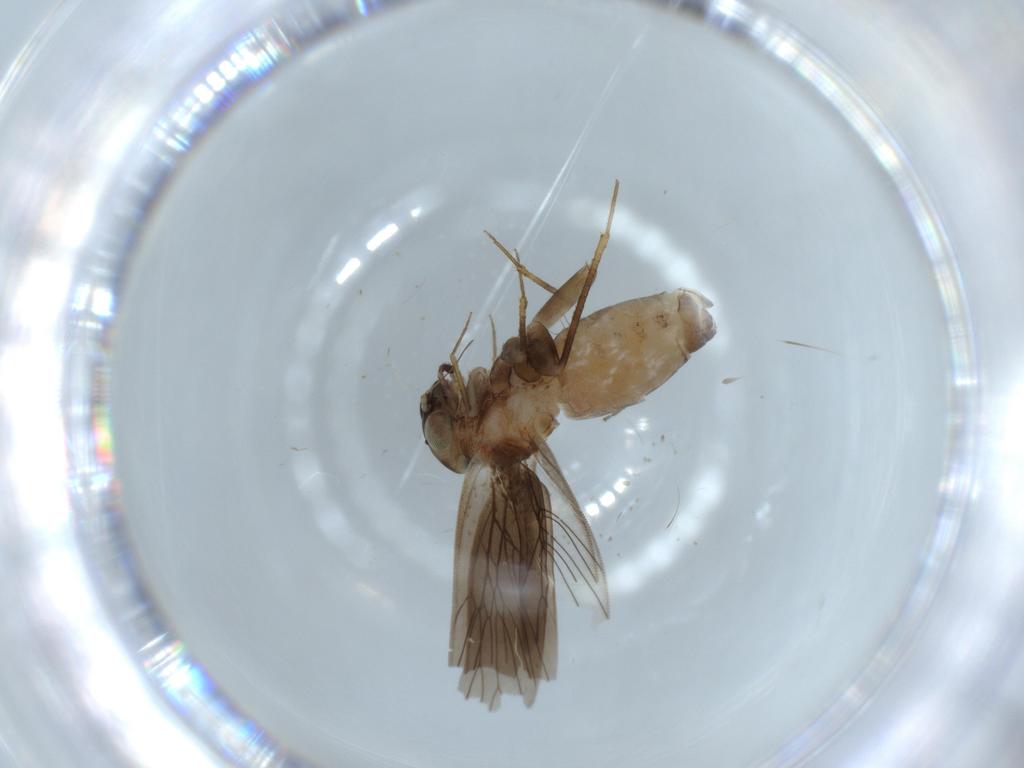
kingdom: Animalia
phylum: Arthropoda
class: Insecta
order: Psocodea
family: Lepidopsocidae
